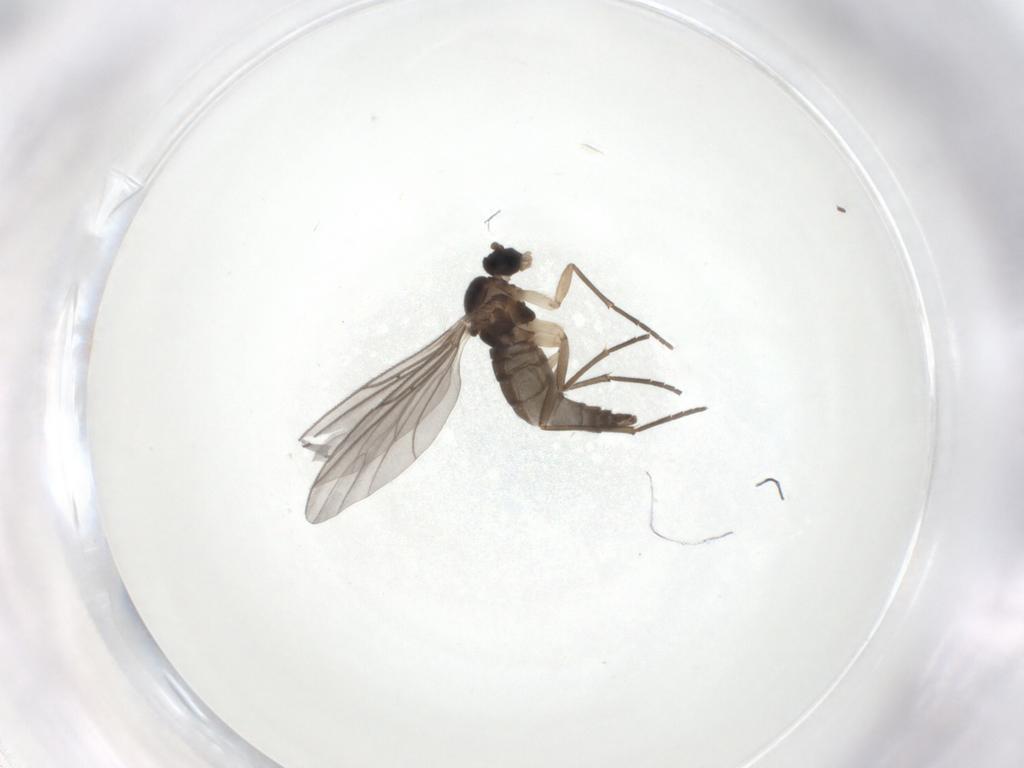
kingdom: Animalia
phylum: Arthropoda
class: Insecta
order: Diptera
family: Sciaridae
